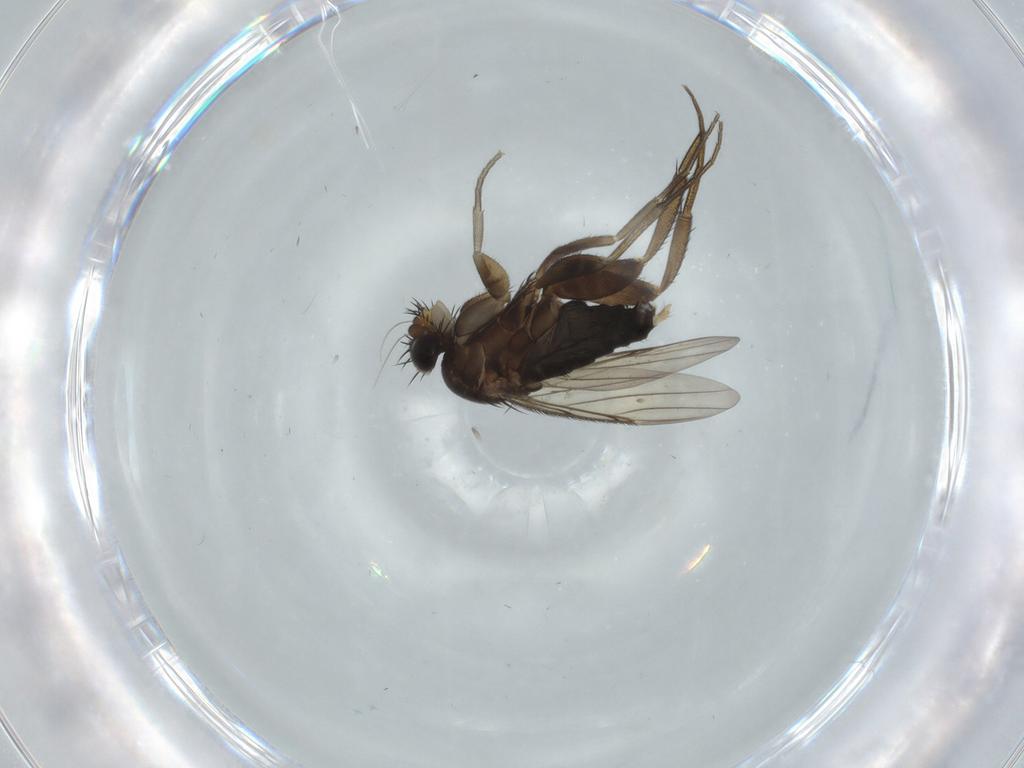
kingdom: Animalia
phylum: Arthropoda
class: Insecta
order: Diptera
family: Phoridae
